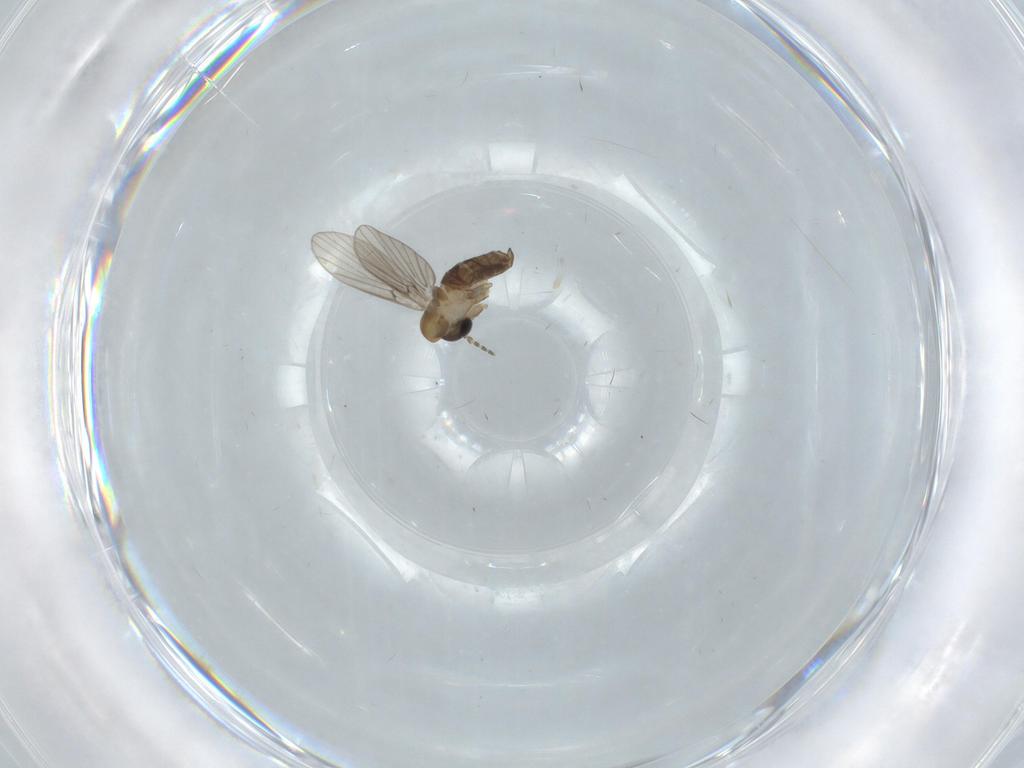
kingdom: Animalia
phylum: Arthropoda
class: Insecta
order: Diptera
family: Psychodidae
